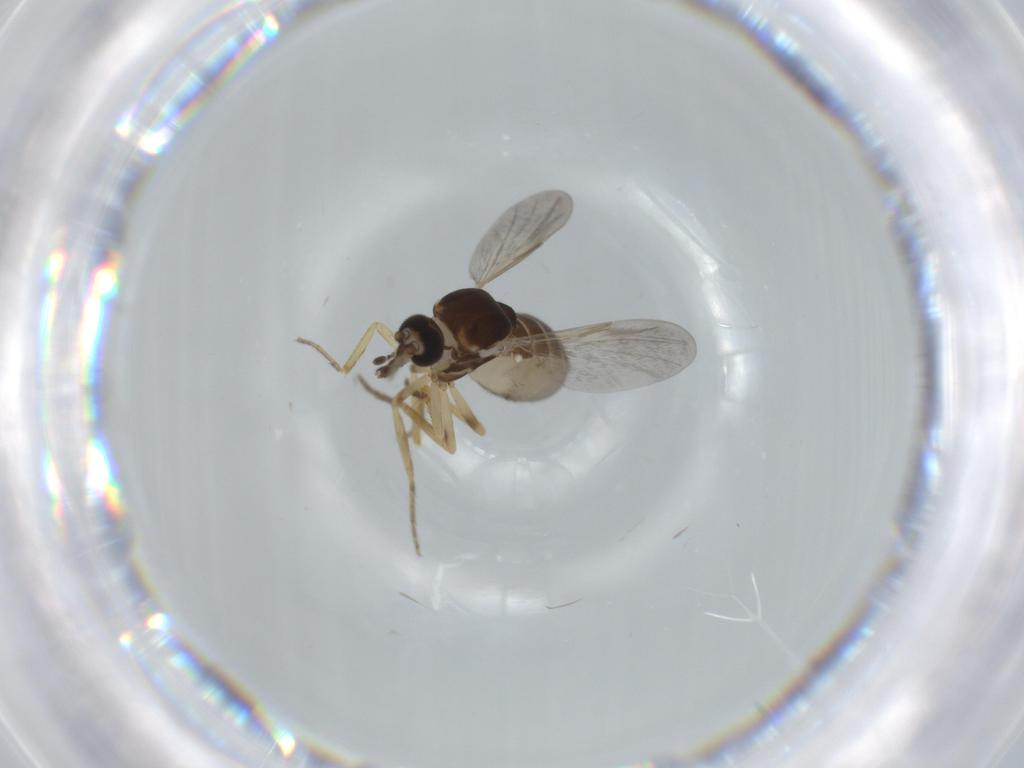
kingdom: Animalia
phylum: Arthropoda
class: Insecta
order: Diptera
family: Ceratopogonidae
